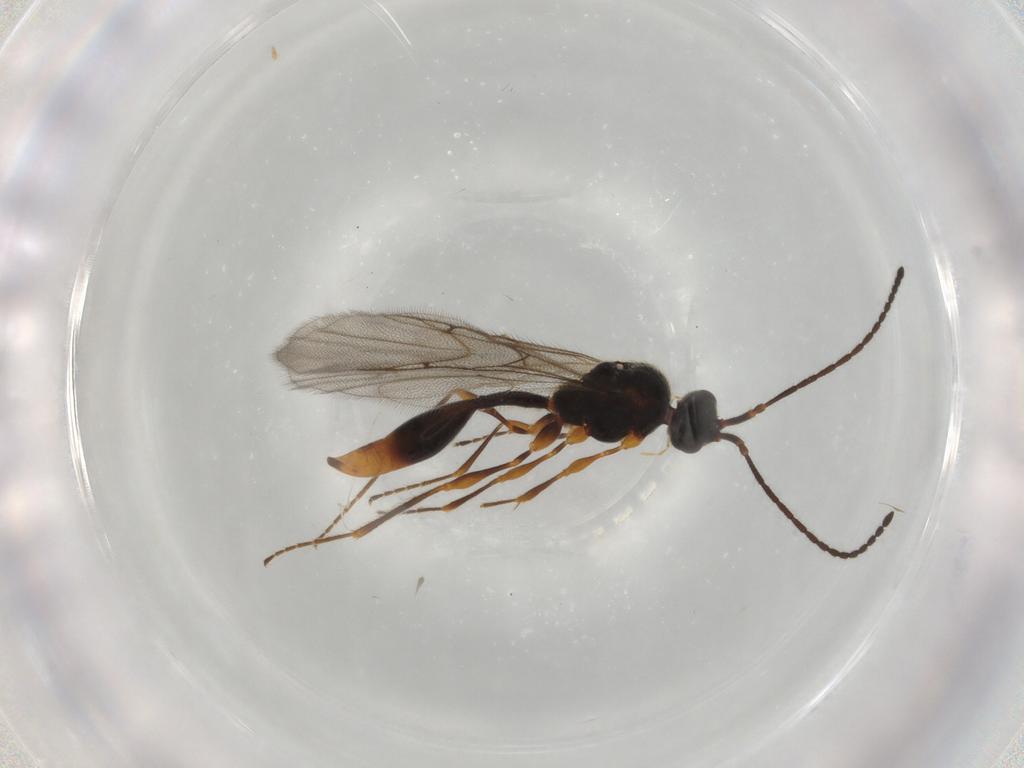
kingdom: Animalia
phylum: Arthropoda
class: Insecta
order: Hymenoptera
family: Diapriidae
